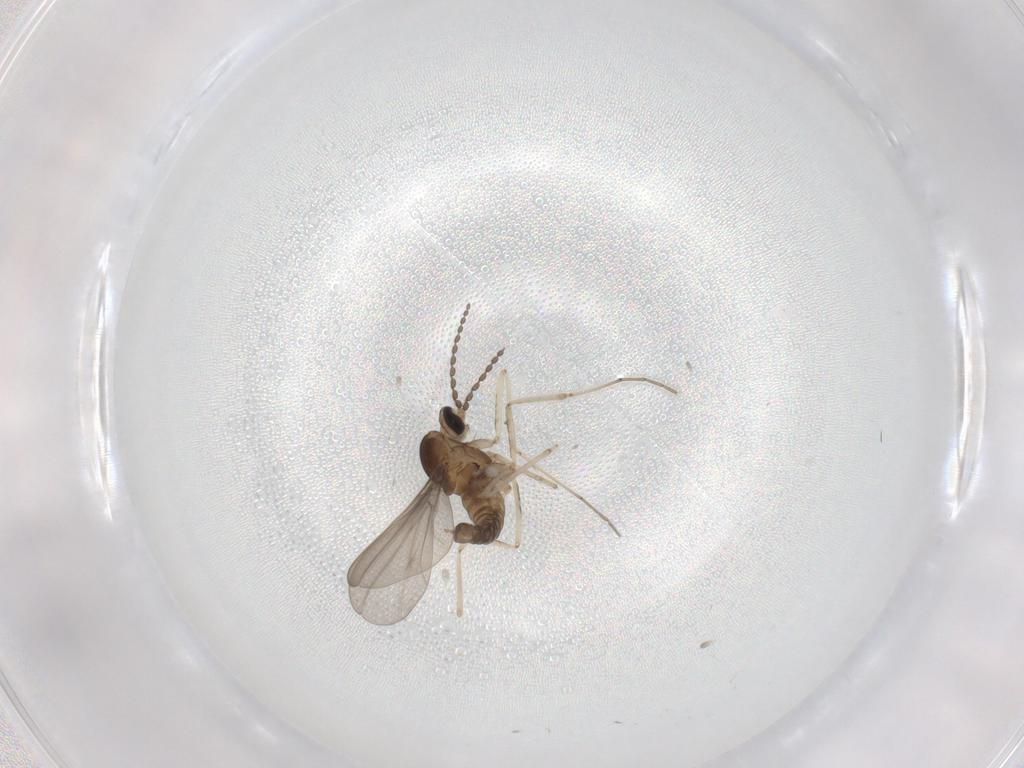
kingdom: Animalia
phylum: Arthropoda
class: Insecta
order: Diptera
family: Cecidomyiidae
